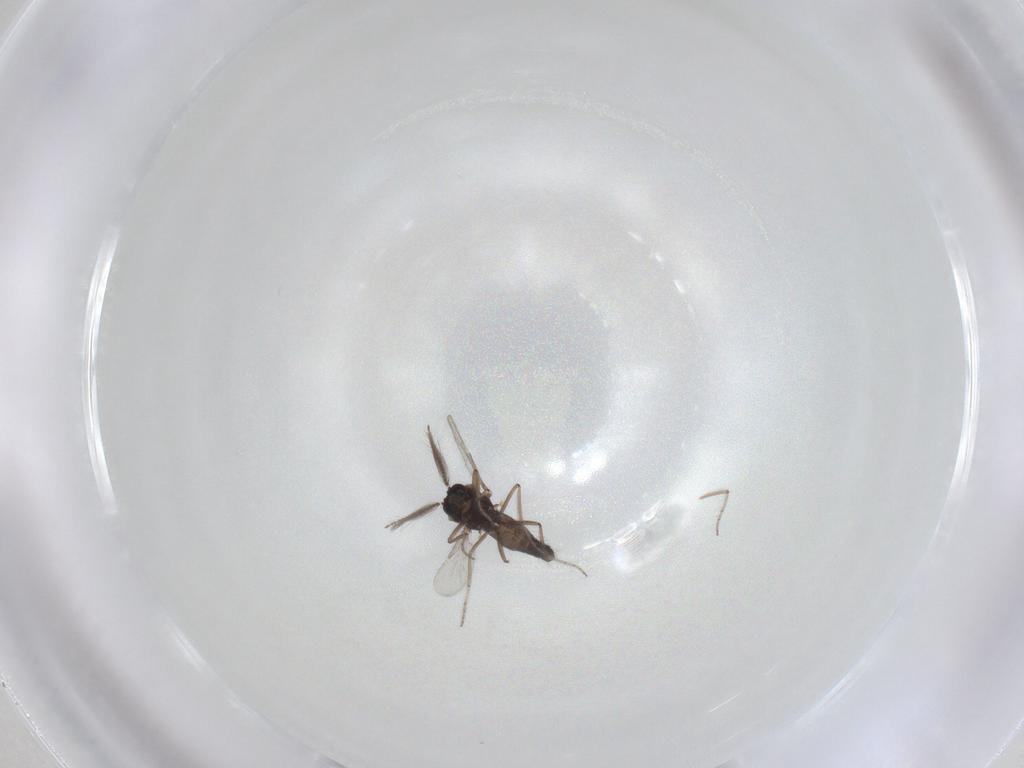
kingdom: Animalia
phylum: Arthropoda
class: Insecta
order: Diptera
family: Ceratopogonidae
